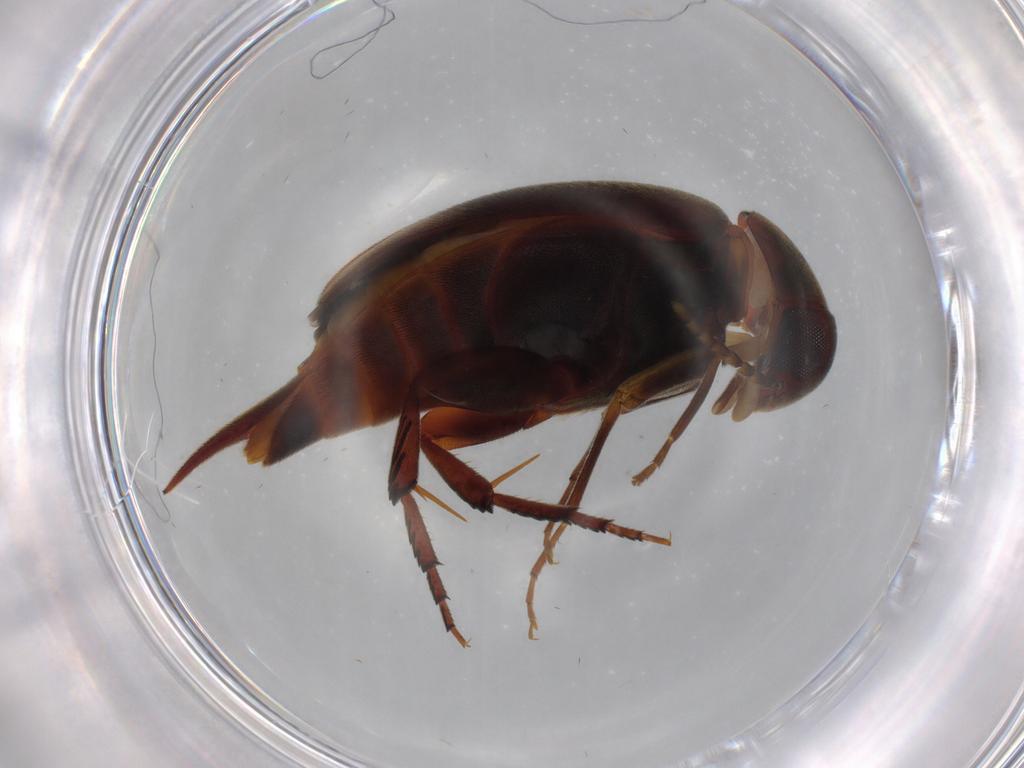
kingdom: Animalia
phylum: Arthropoda
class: Insecta
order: Coleoptera
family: Mordellidae
